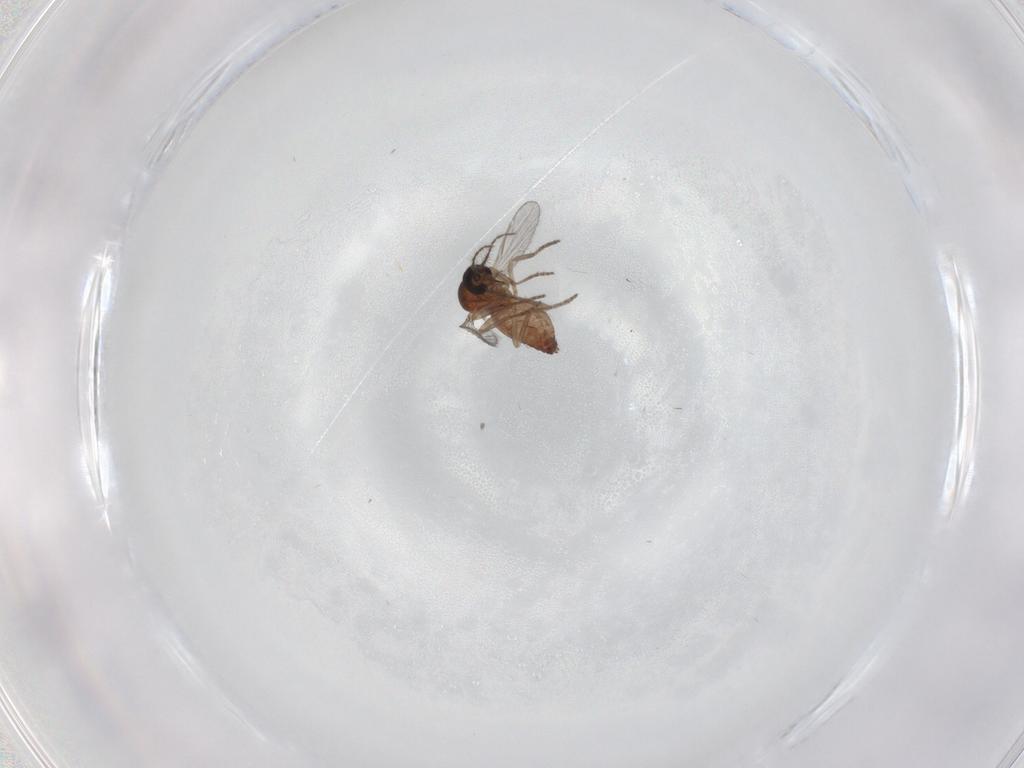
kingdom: Animalia
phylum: Arthropoda
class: Insecta
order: Diptera
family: Ceratopogonidae
